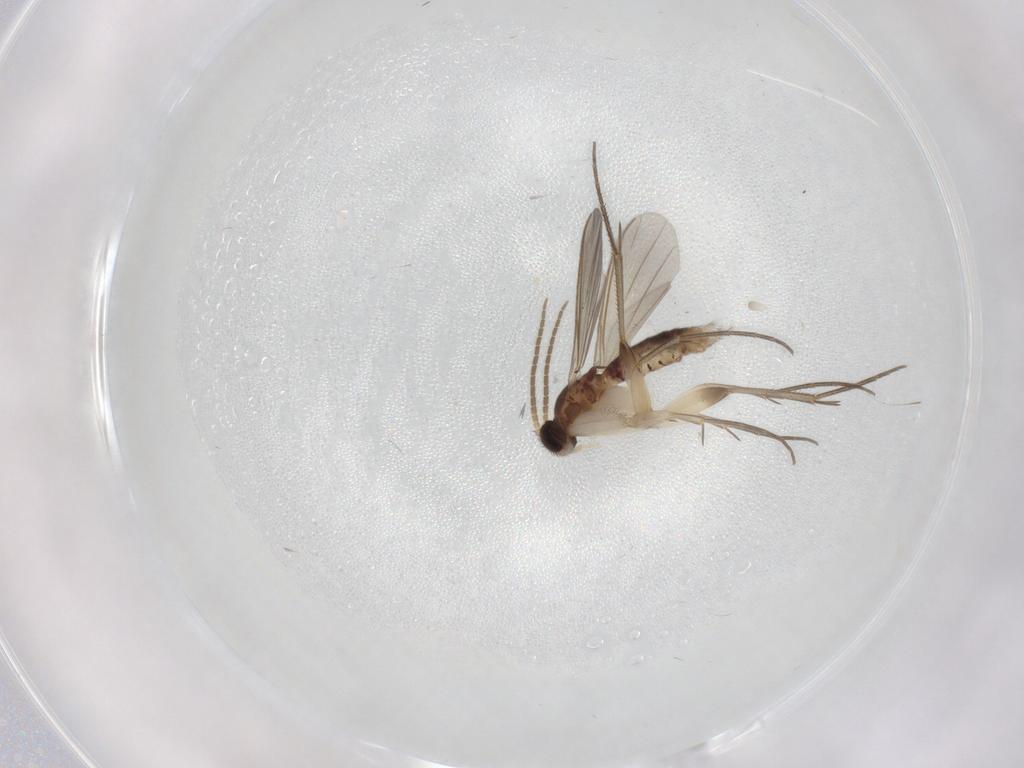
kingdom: Animalia
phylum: Arthropoda
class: Insecta
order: Diptera
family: Mycetophilidae
